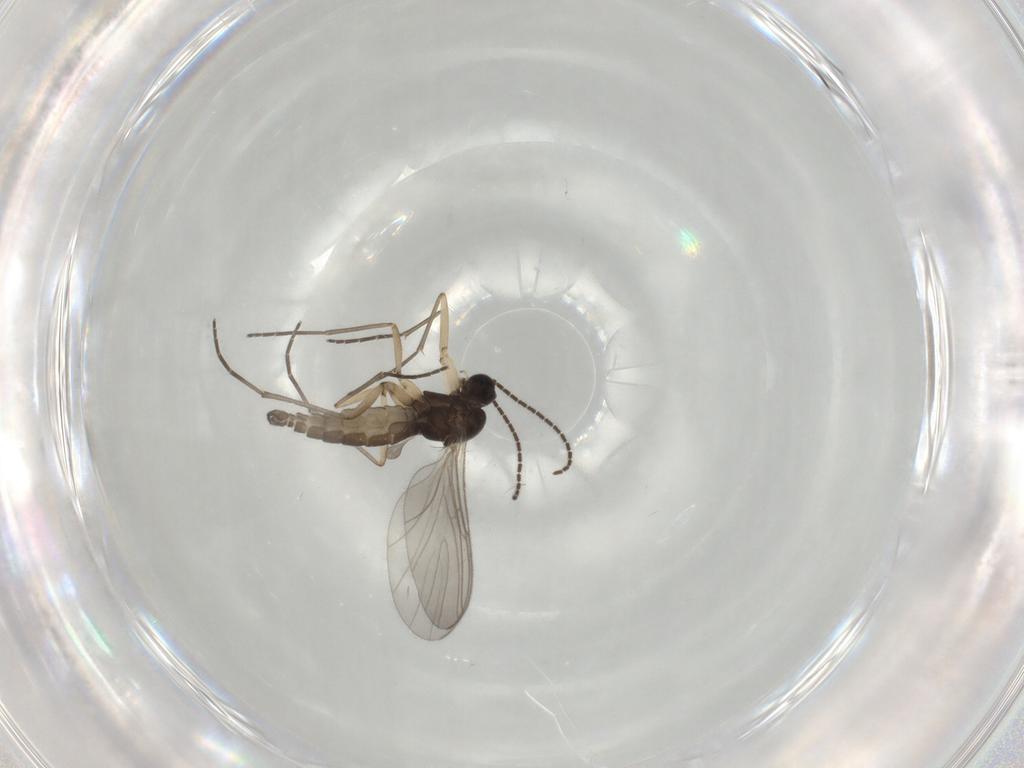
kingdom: Animalia
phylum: Arthropoda
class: Insecta
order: Diptera
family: Sciaridae
